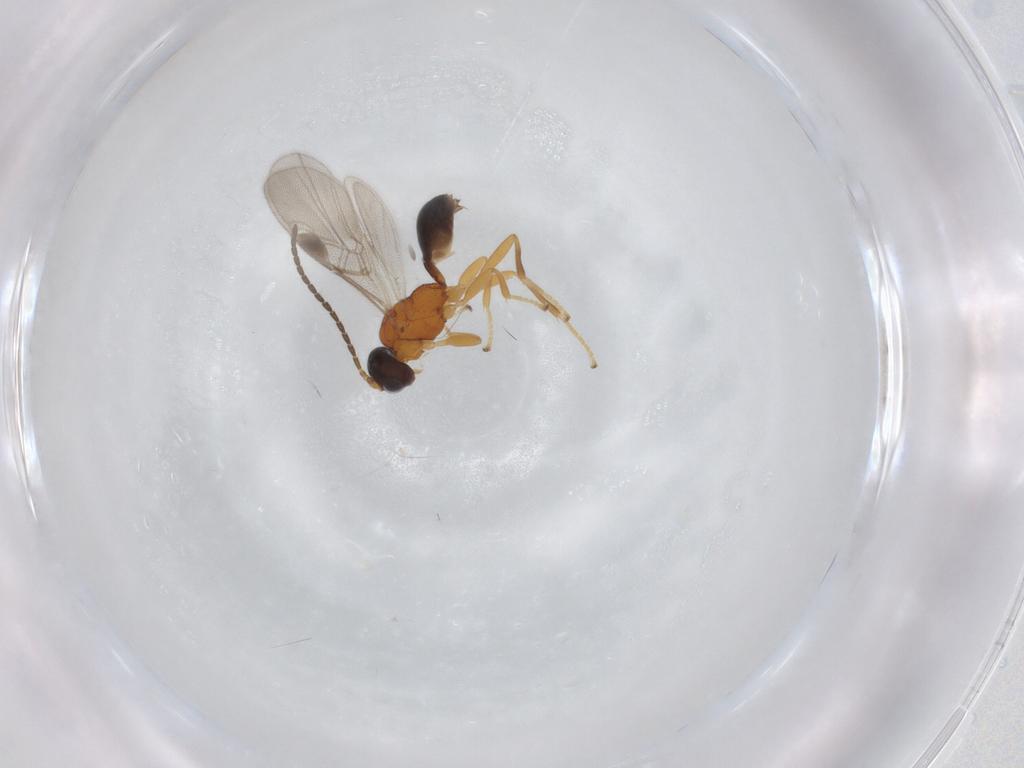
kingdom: Animalia
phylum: Arthropoda
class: Insecta
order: Hymenoptera
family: Braconidae
